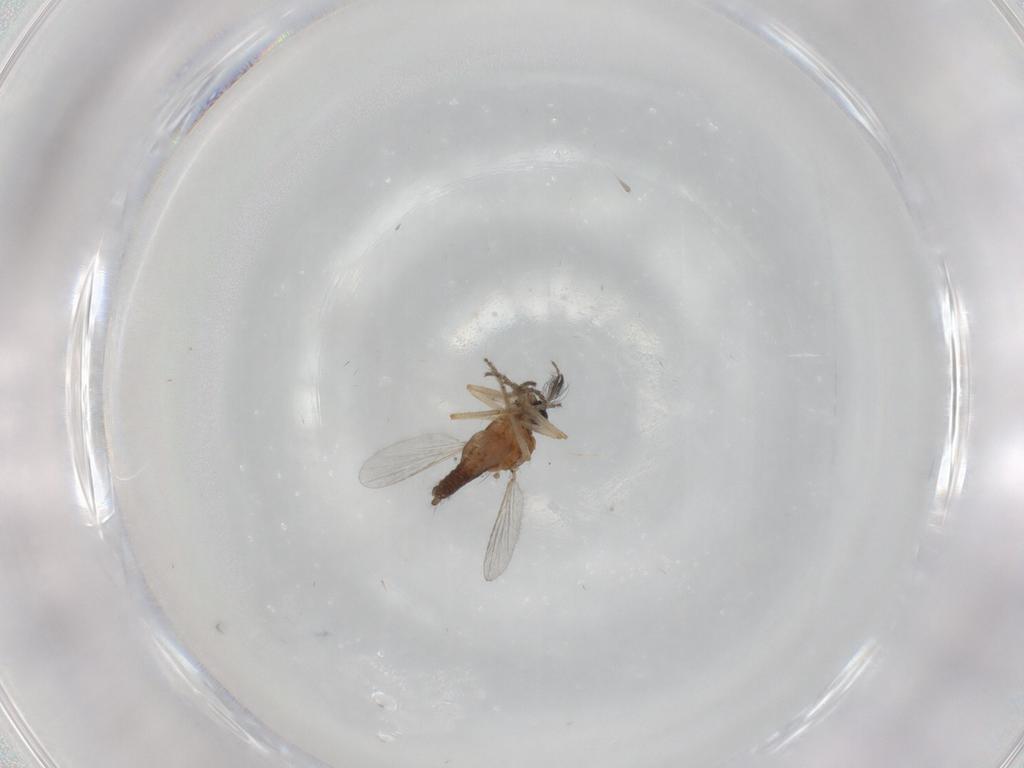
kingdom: Animalia
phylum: Arthropoda
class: Insecta
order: Diptera
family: Ceratopogonidae
